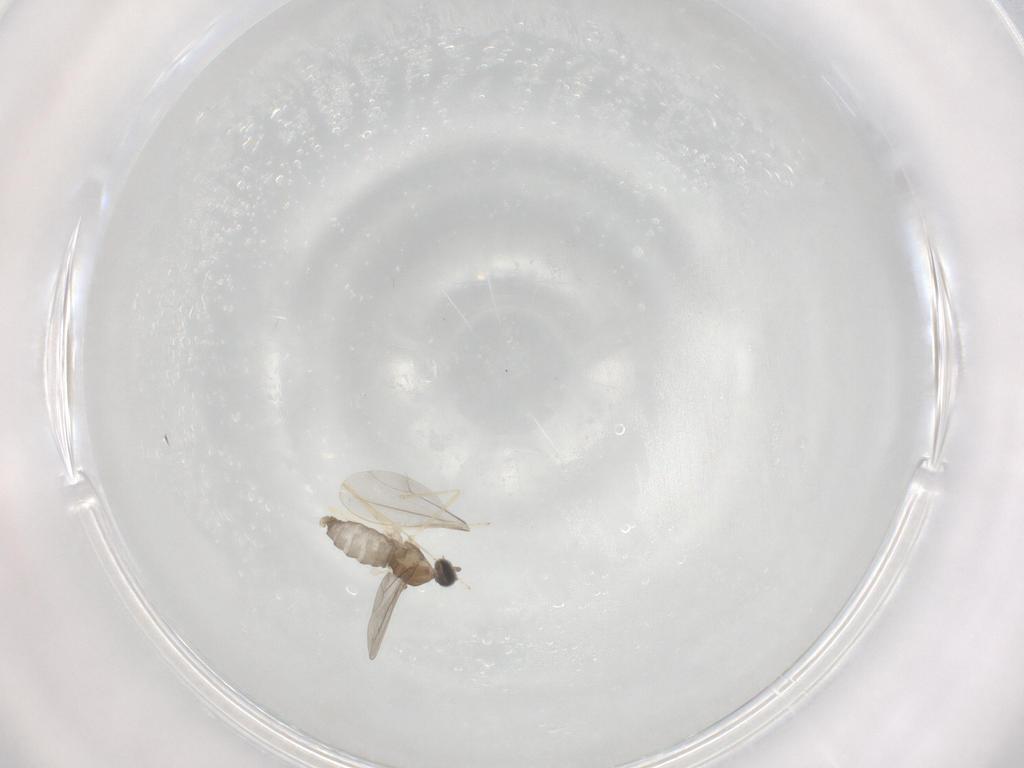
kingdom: Animalia
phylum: Arthropoda
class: Insecta
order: Diptera
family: Cecidomyiidae
